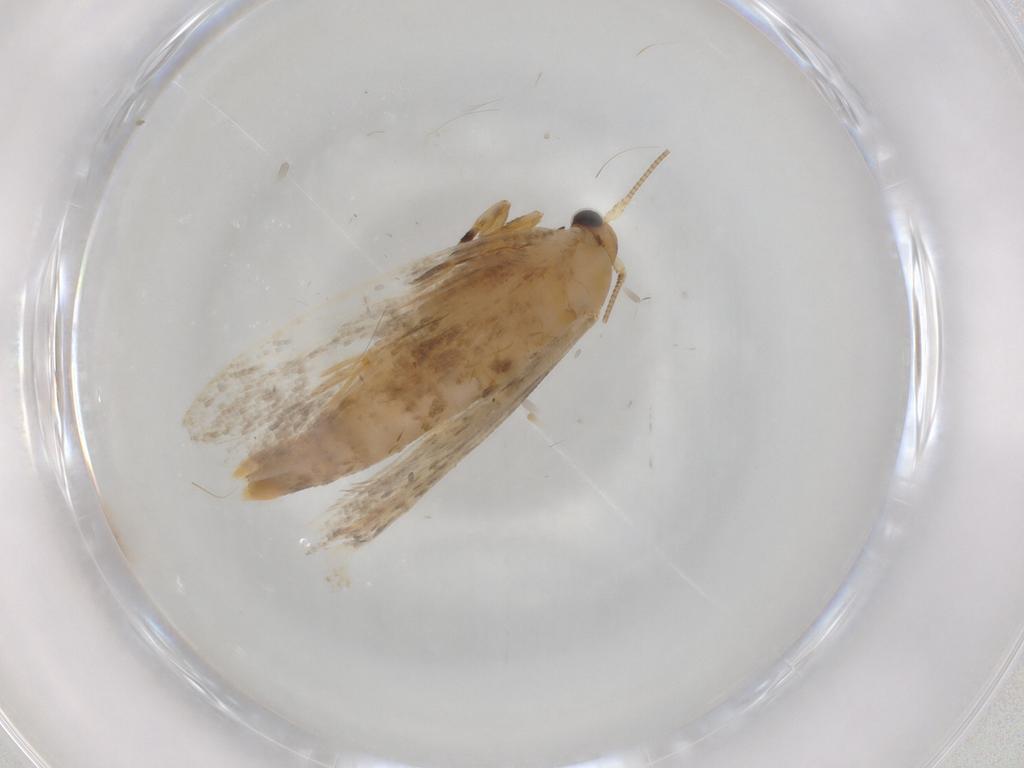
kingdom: Animalia
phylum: Arthropoda
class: Insecta
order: Lepidoptera
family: Tineidae
